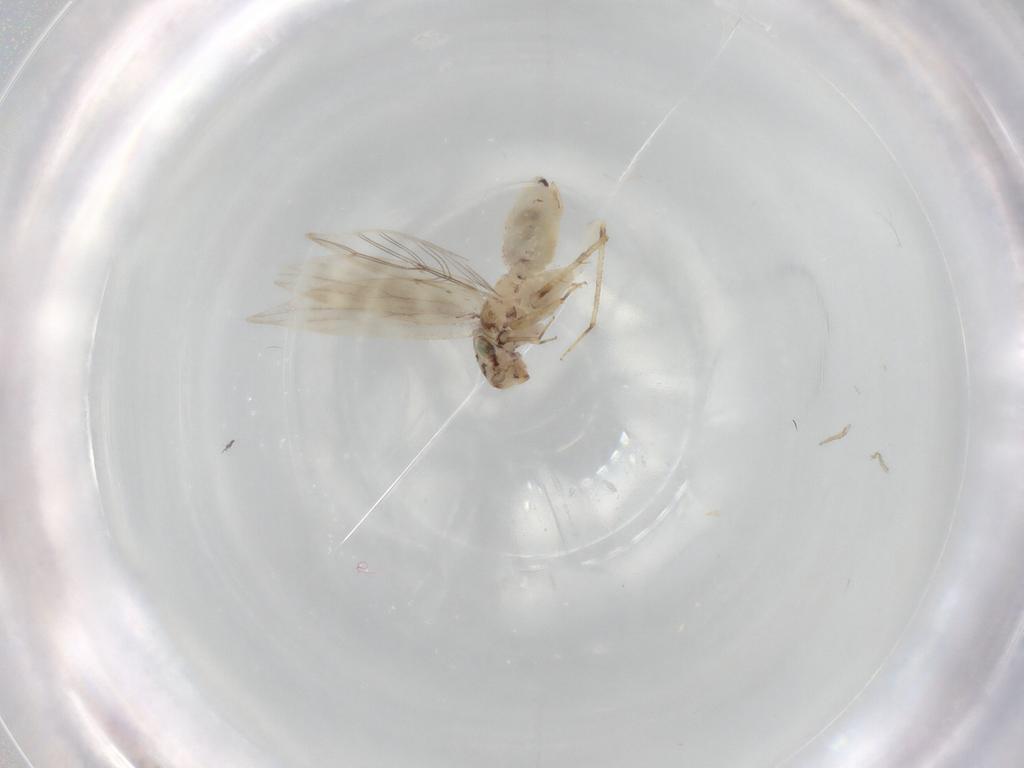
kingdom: Animalia
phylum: Arthropoda
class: Insecta
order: Psocodea
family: Lepidopsocidae
